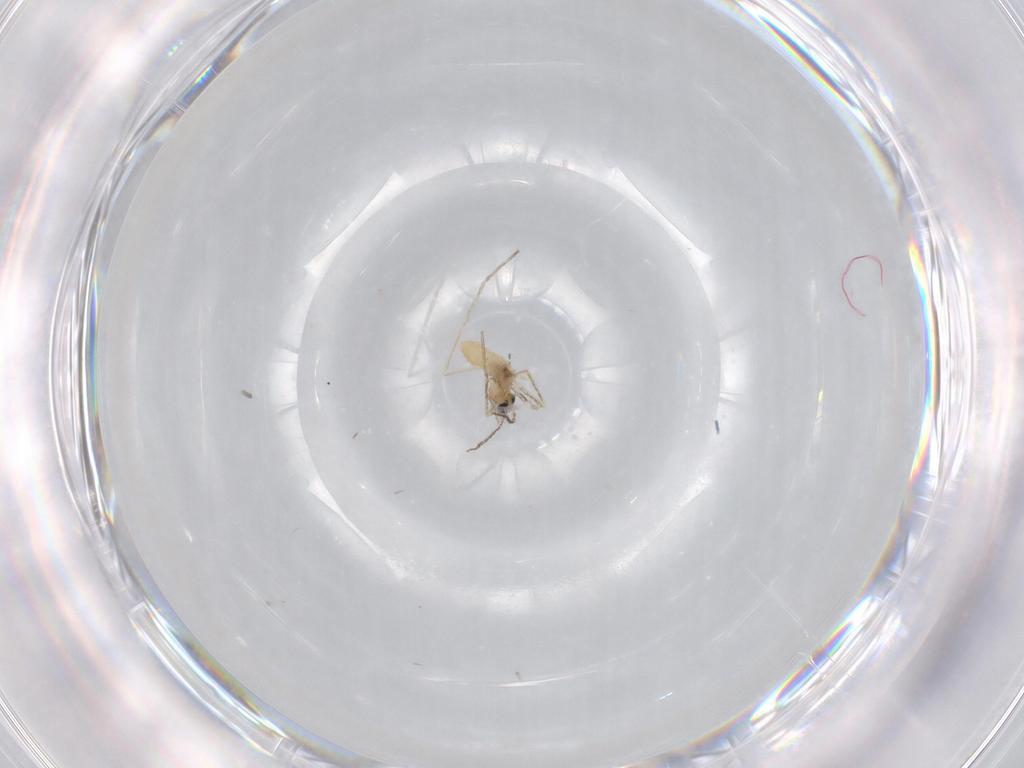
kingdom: Animalia
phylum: Arthropoda
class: Insecta
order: Diptera
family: Cecidomyiidae
